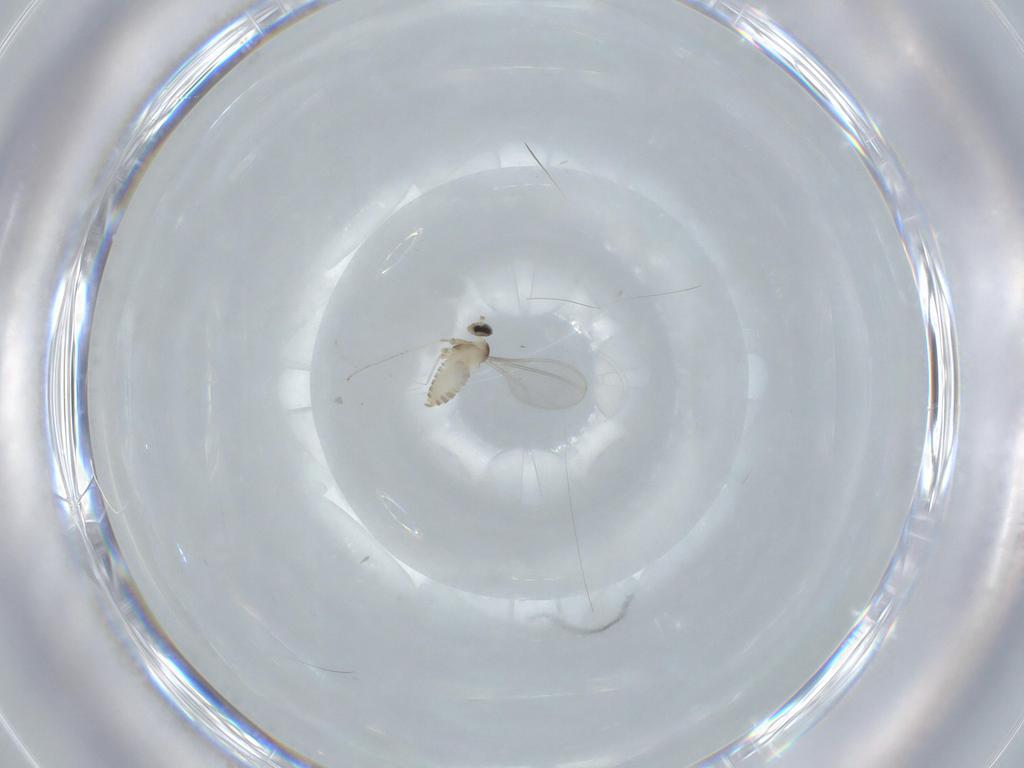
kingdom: Animalia
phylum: Arthropoda
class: Insecta
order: Diptera
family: Cecidomyiidae
